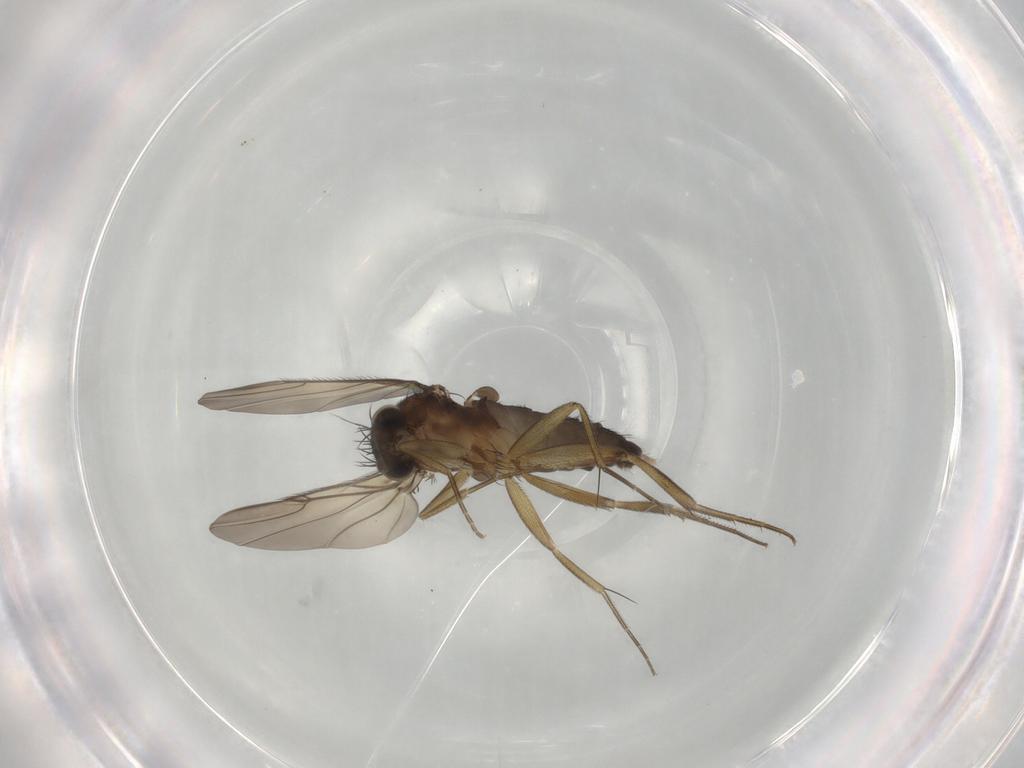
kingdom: Animalia
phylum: Arthropoda
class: Insecta
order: Diptera
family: Phoridae
